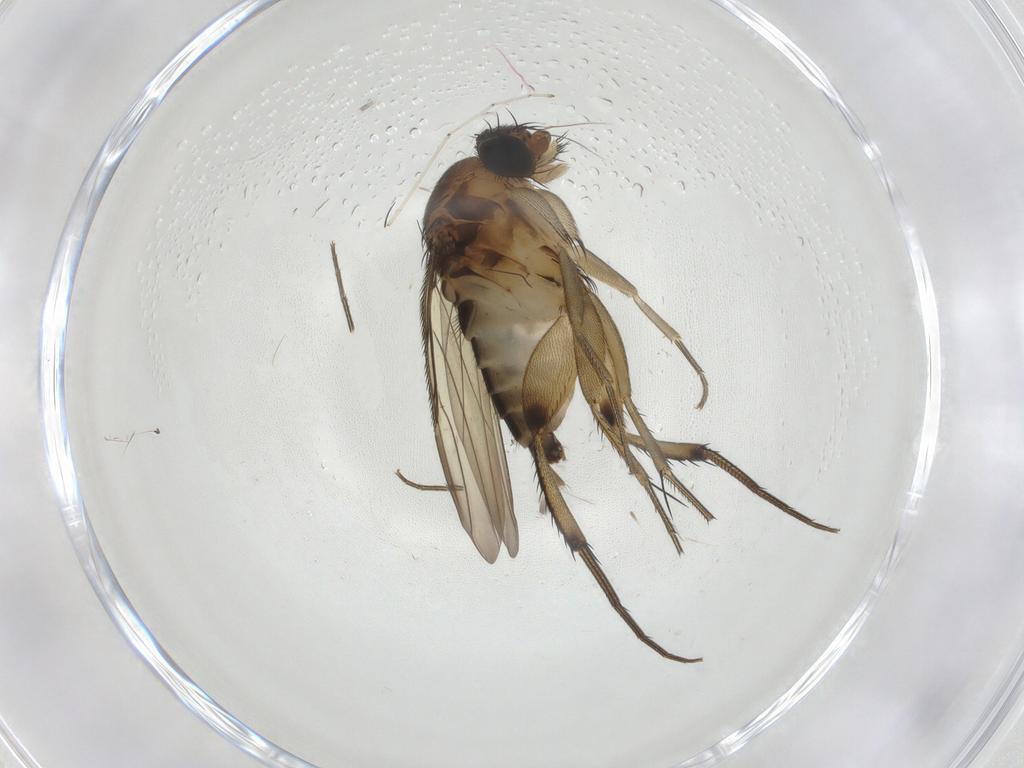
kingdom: Animalia
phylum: Arthropoda
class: Insecta
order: Diptera
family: Phoridae
